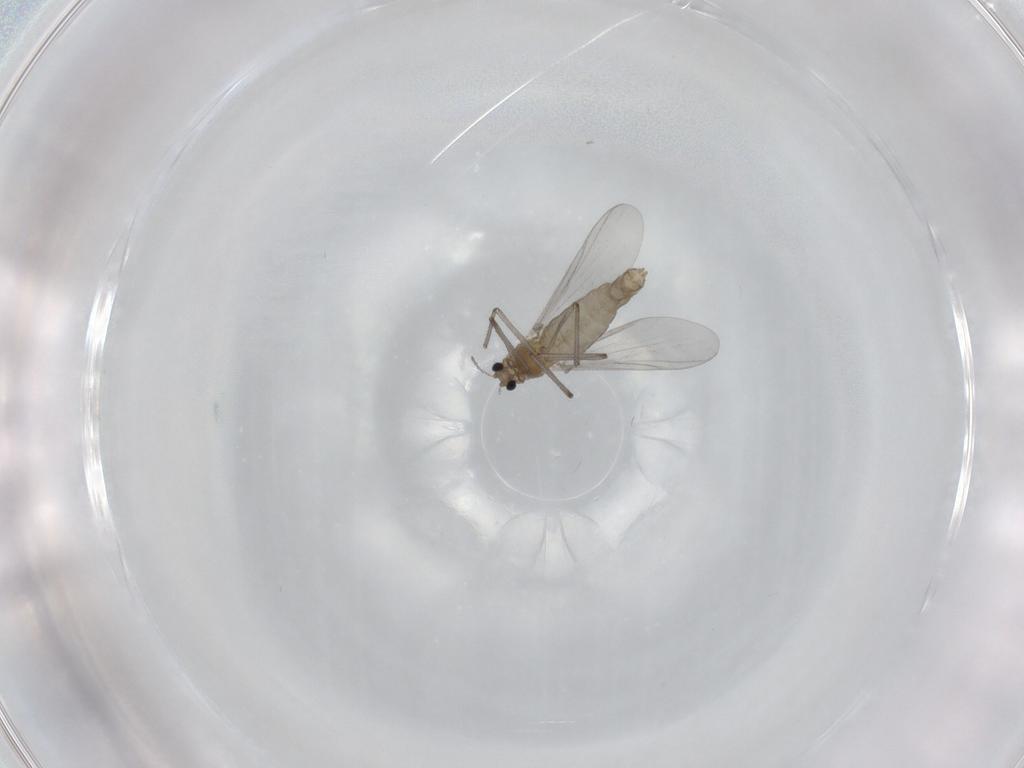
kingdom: Animalia
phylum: Arthropoda
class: Insecta
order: Diptera
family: Chironomidae
